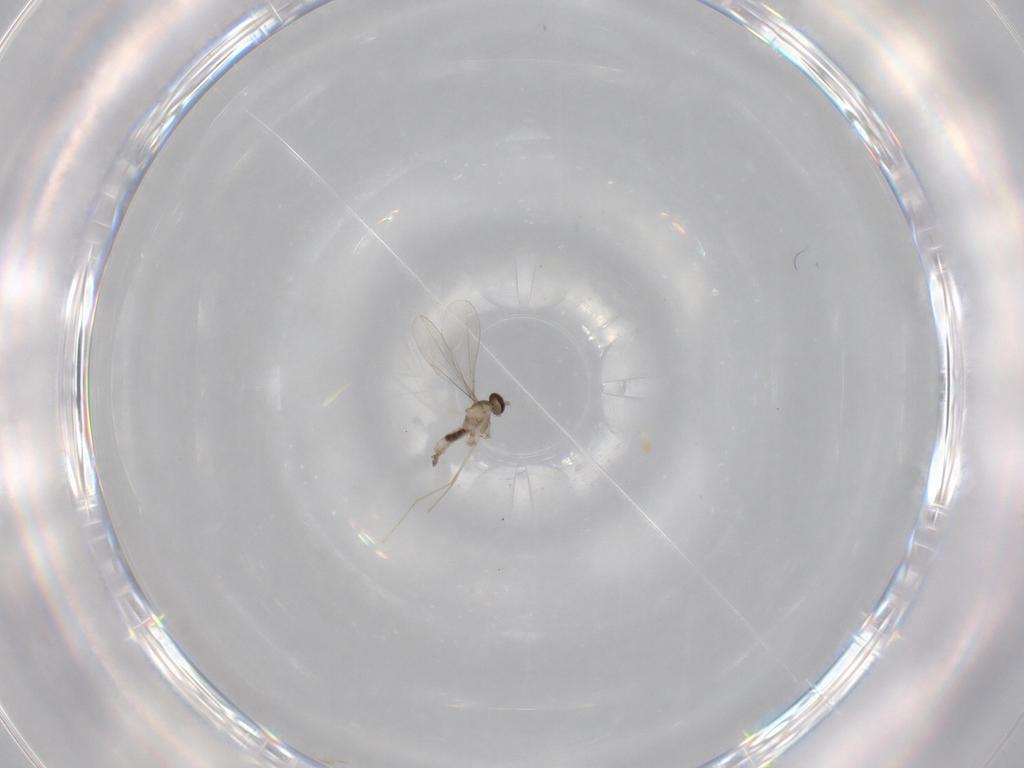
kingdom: Animalia
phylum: Arthropoda
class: Insecta
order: Diptera
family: Cecidomyiidae
